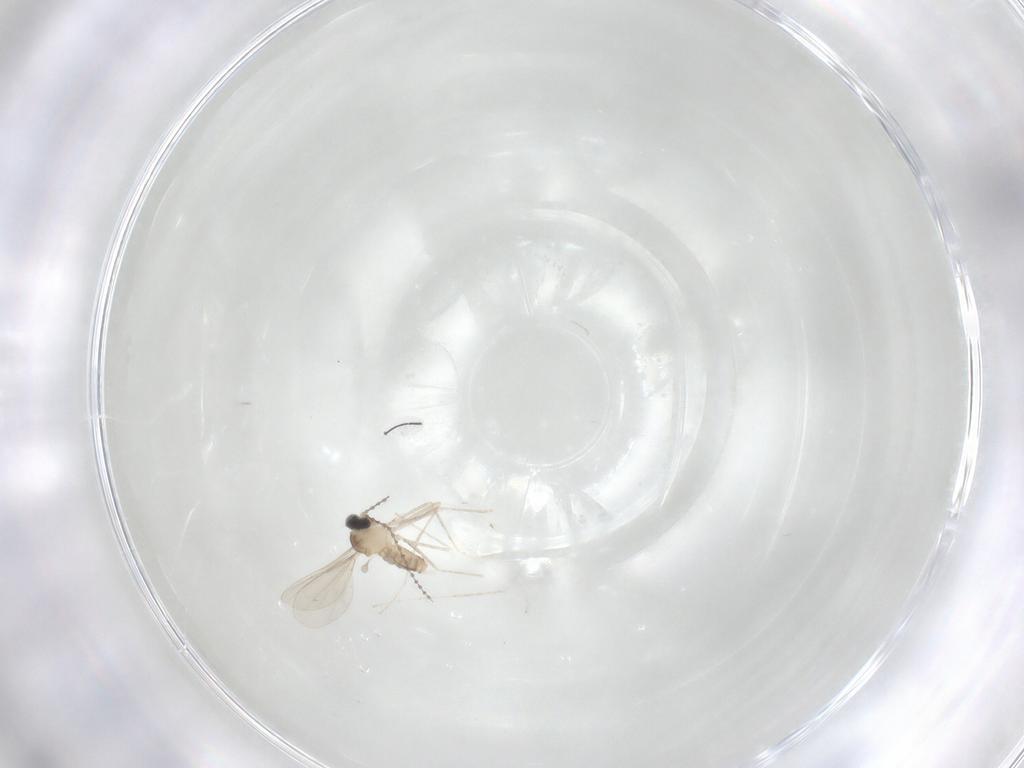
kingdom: Animalia
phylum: Arthropoda
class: Insecta
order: Diptera
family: Cecidomyiidae
